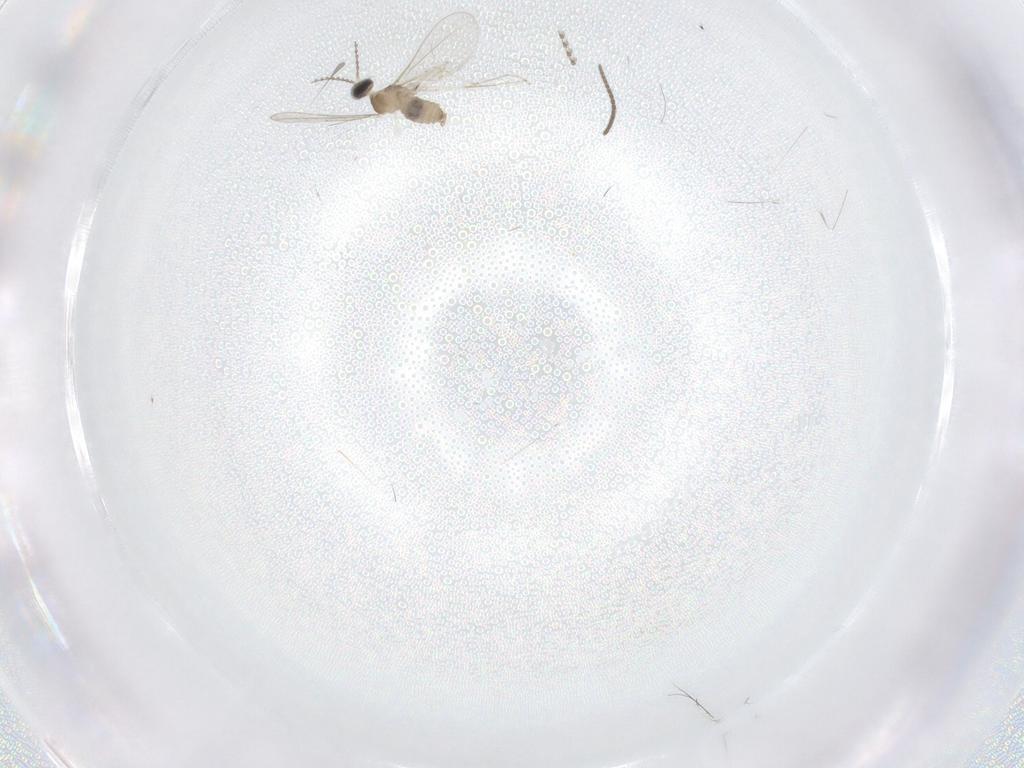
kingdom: Animalia
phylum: Arthropoda
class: Insecta
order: Diptera
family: Cecidomyiidae
